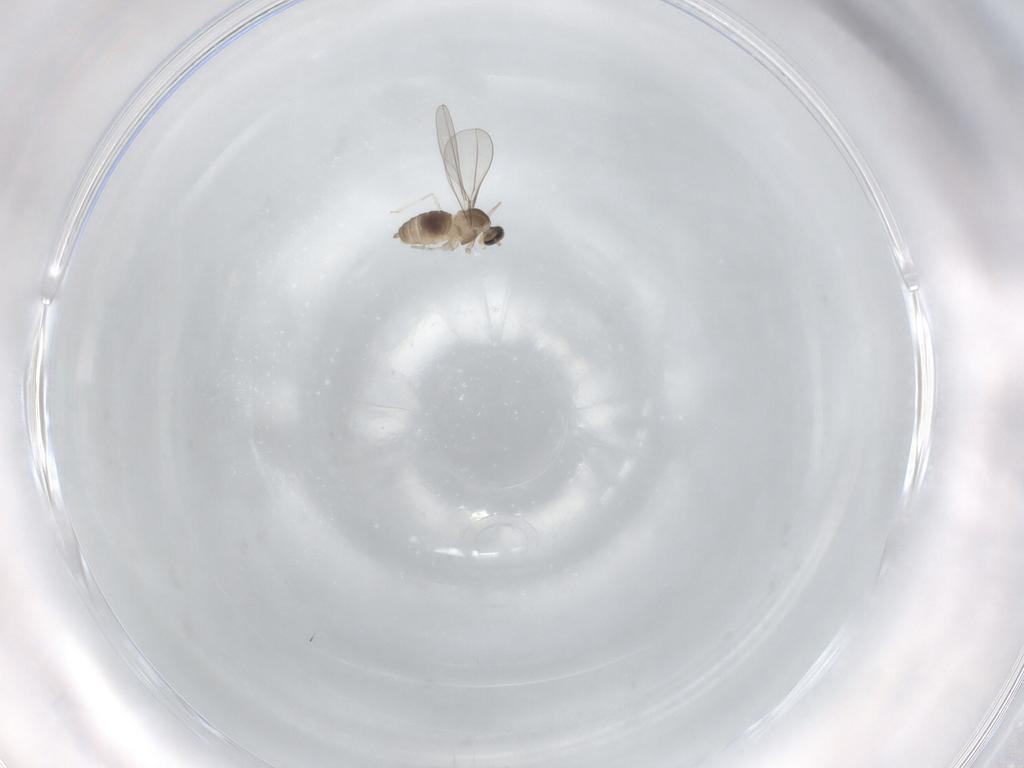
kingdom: Animalia
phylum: Arthropoda
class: Insecta
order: Diptera
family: Cecidomyiidae
